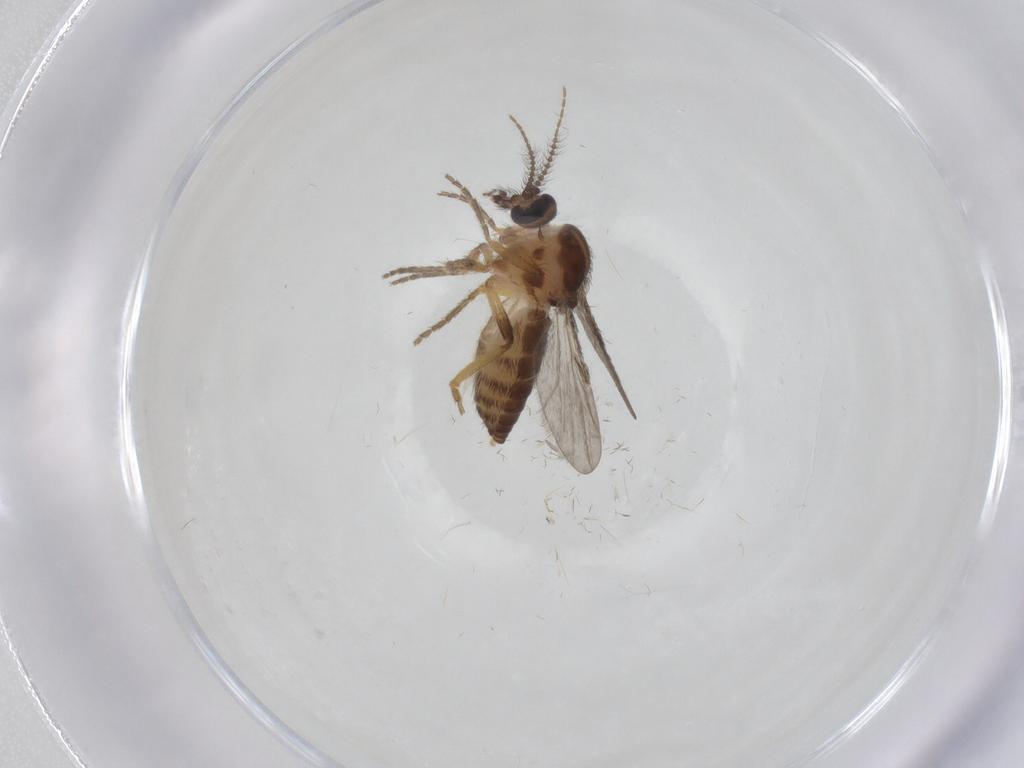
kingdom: Animalia
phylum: Arthropoda
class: Insecta
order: Diptera
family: Ceratopogonidae
